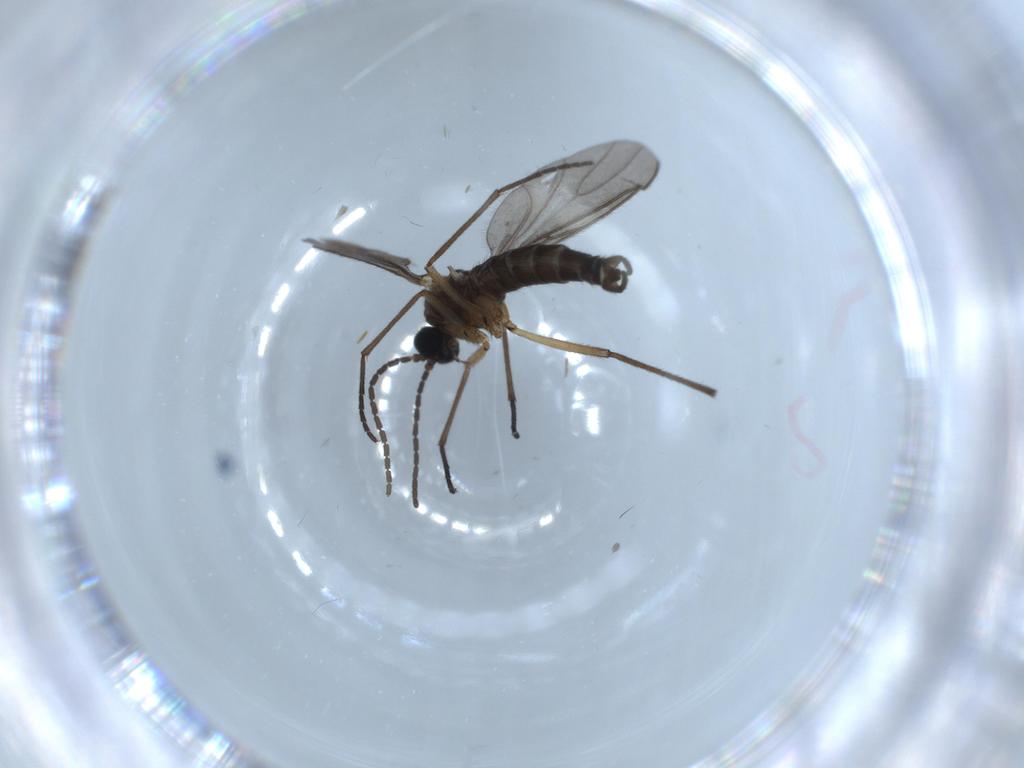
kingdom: Animalia
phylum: Arthropoda
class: Insecta
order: Diptera
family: Sciaridae
